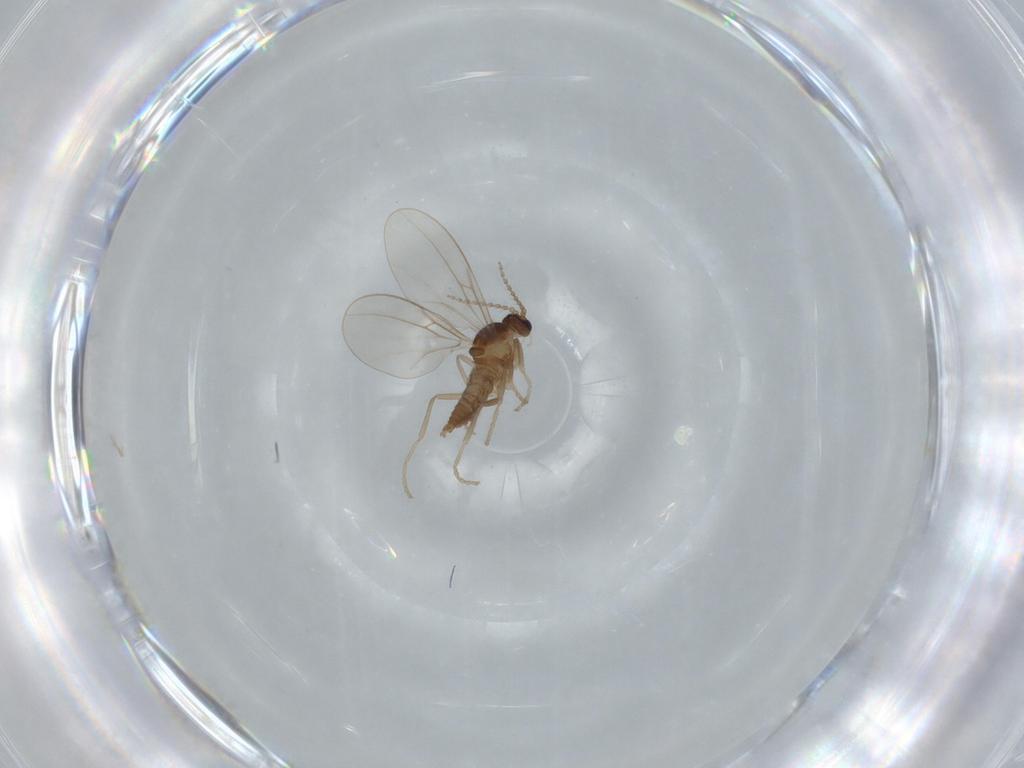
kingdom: Animalia
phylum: Arthropoda
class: Insecta
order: Diptera
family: Cecidomyiidae
